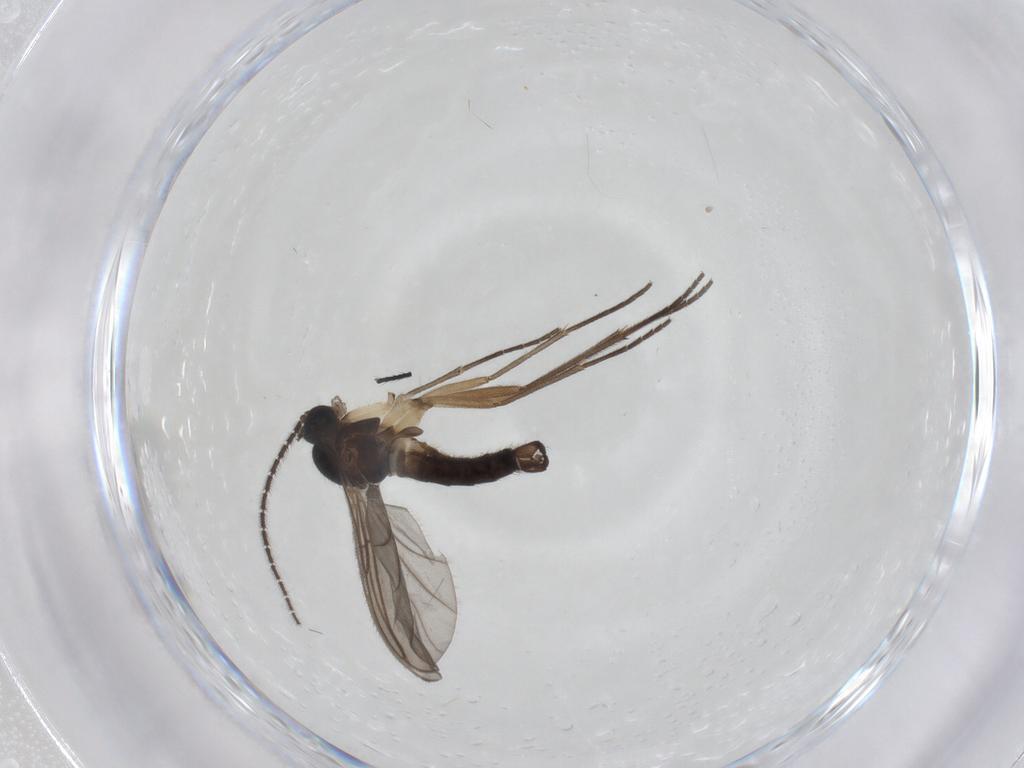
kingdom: Animalia
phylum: Arthropoda
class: Insecta
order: Diptera
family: Sciaridae
